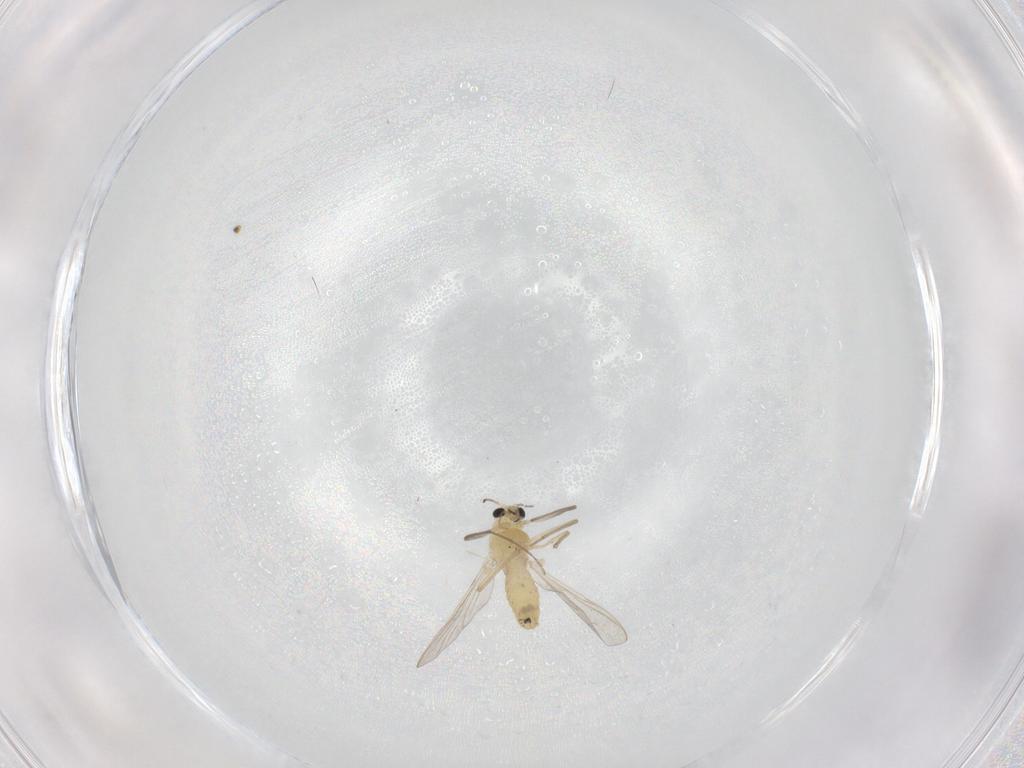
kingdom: Animalia
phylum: Arthropoda
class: Insecta
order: Diptera
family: Chironomidae
